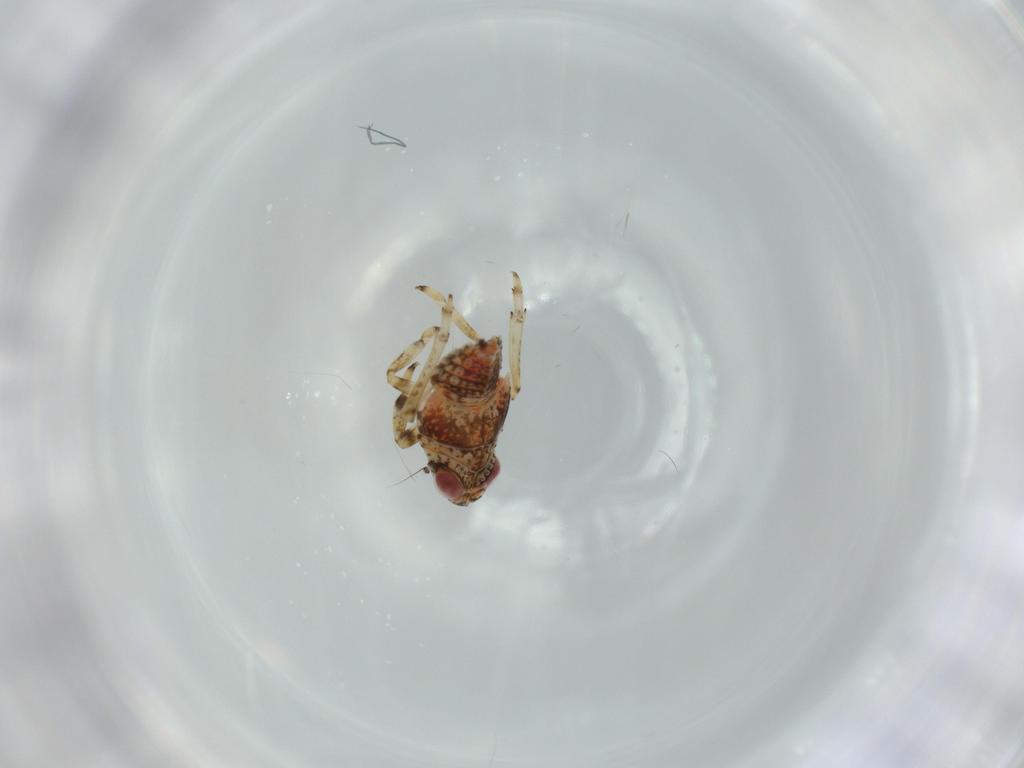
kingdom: Animalia
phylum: Arthropoda
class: Insecta
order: Hemiptera
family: Issidae
